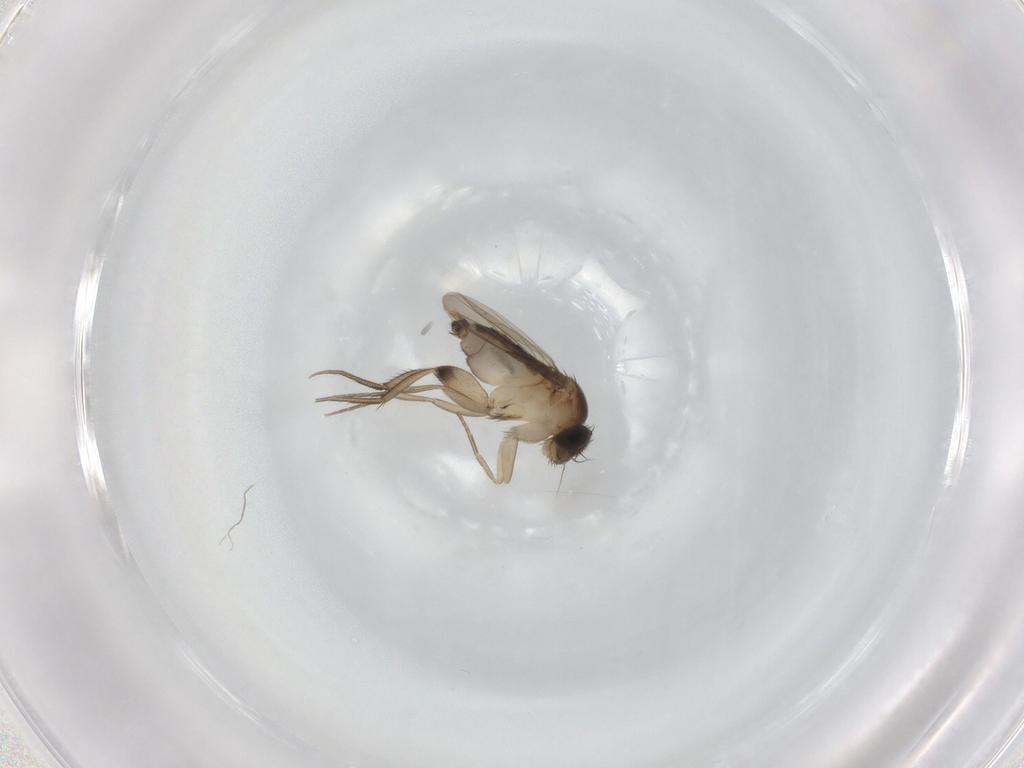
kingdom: Animalia
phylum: Arthropoda
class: Insecta
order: Diptera
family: Phoridae
